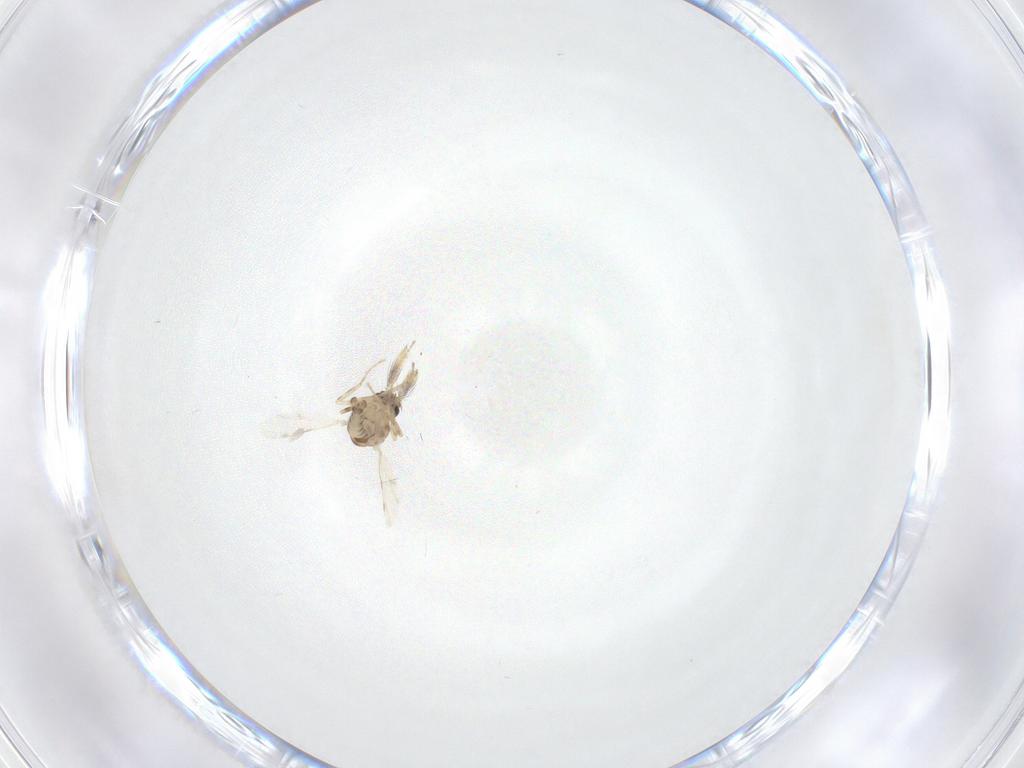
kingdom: Animalia
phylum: Arthropoda
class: Insecta
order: Diptera
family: Ceratopogonidae
